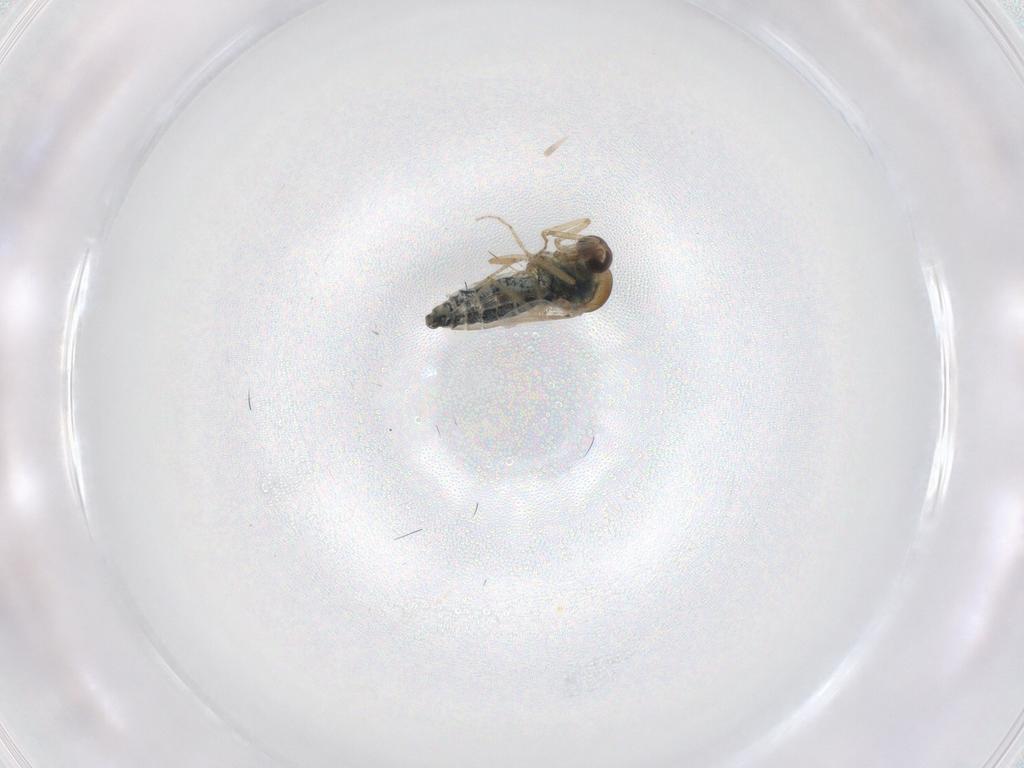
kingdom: Animalia
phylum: Arthropoda
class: Insecta
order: Diptera
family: Ceratopogonidae
